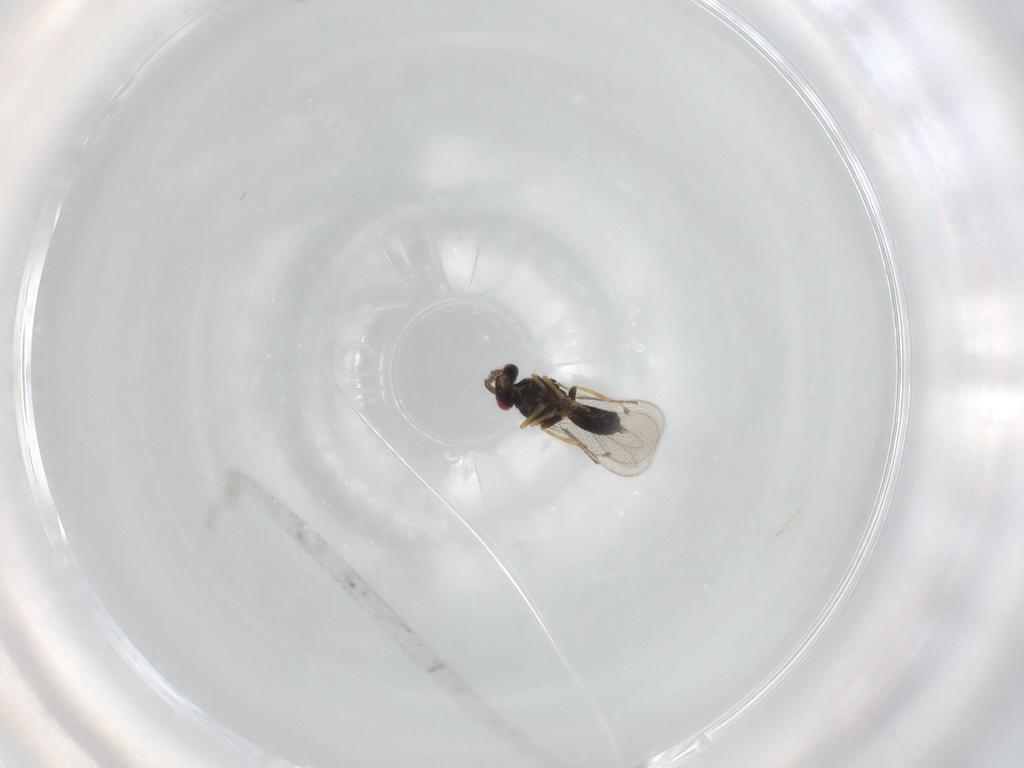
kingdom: Animalia
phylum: Arthropoda
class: Insecta
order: Hymenoptera
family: Eulophidae
